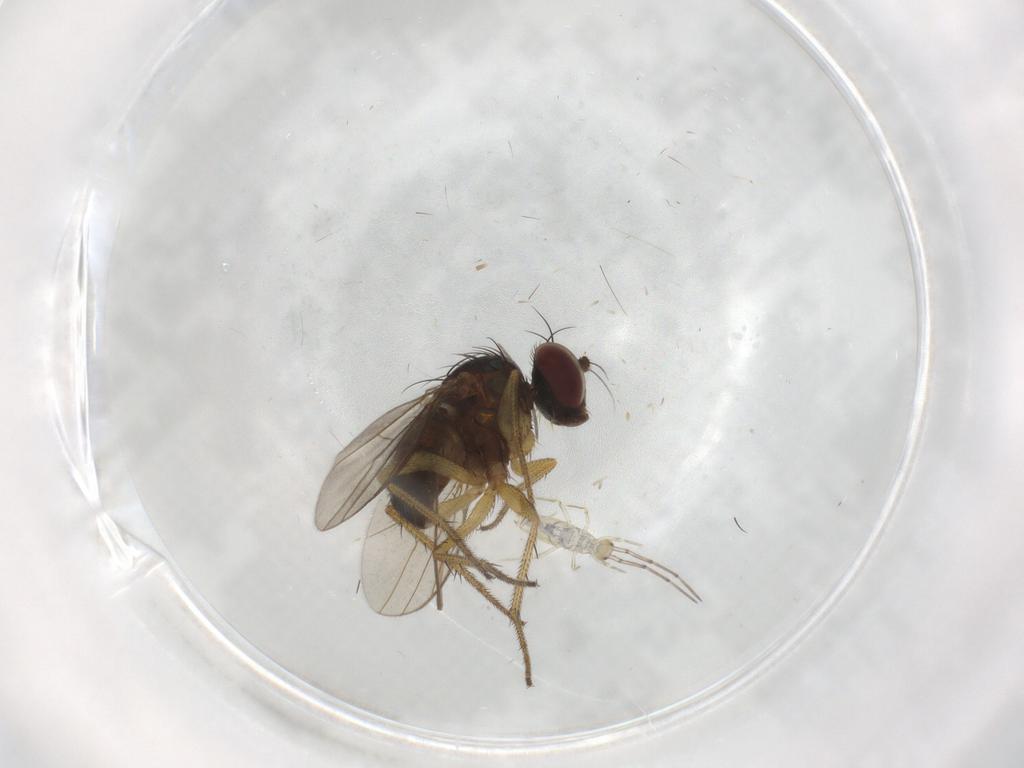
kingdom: Animalia
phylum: Arthropoda
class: Insecta
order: Diptera
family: Chironomidae
